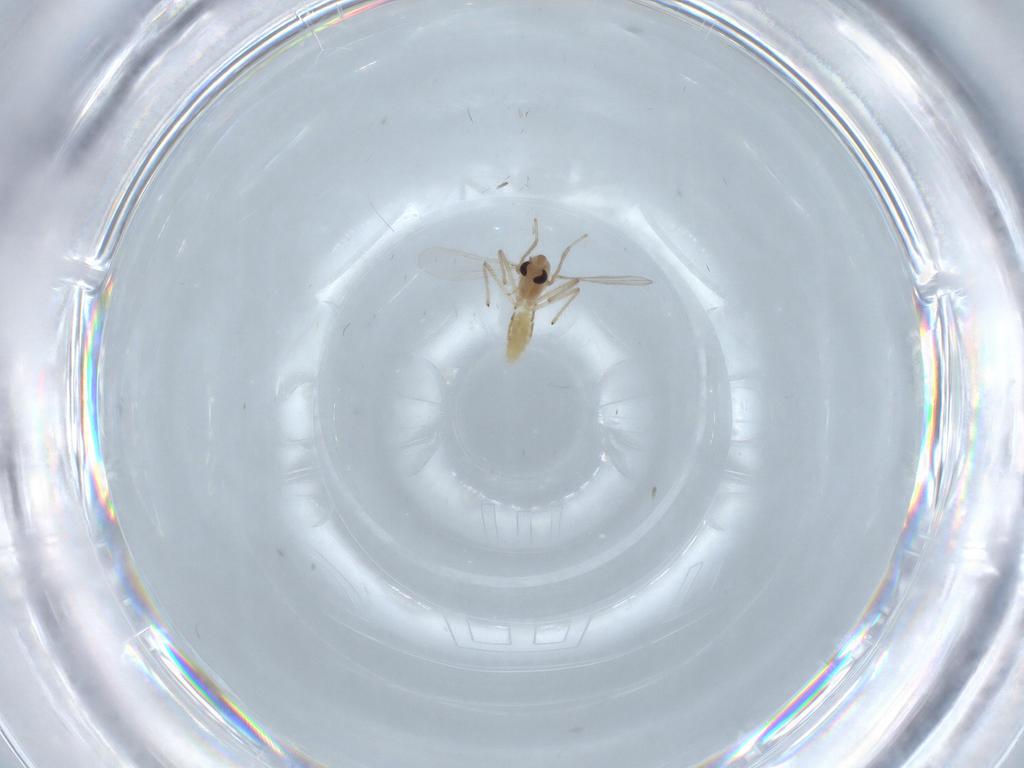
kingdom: Animalia
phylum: Arthropoda
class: Insecta
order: Diptera
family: Chironomidae
